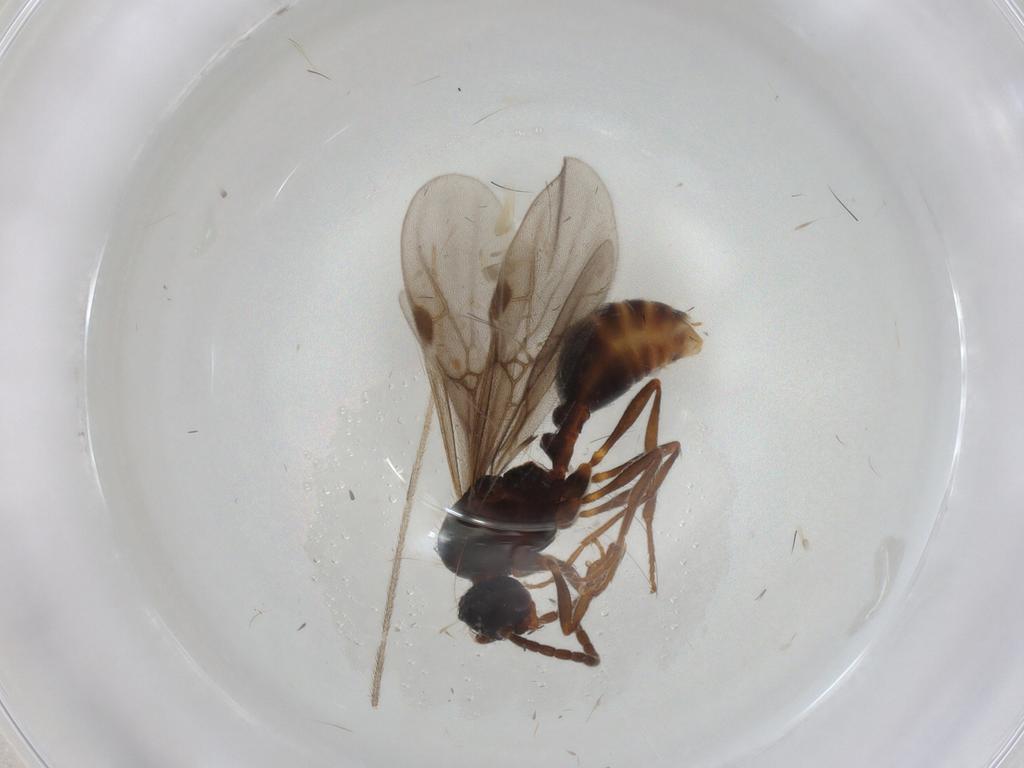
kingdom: Animalia
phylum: Arthropoda
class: Insecta
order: Hymenoptera
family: Formicidae
